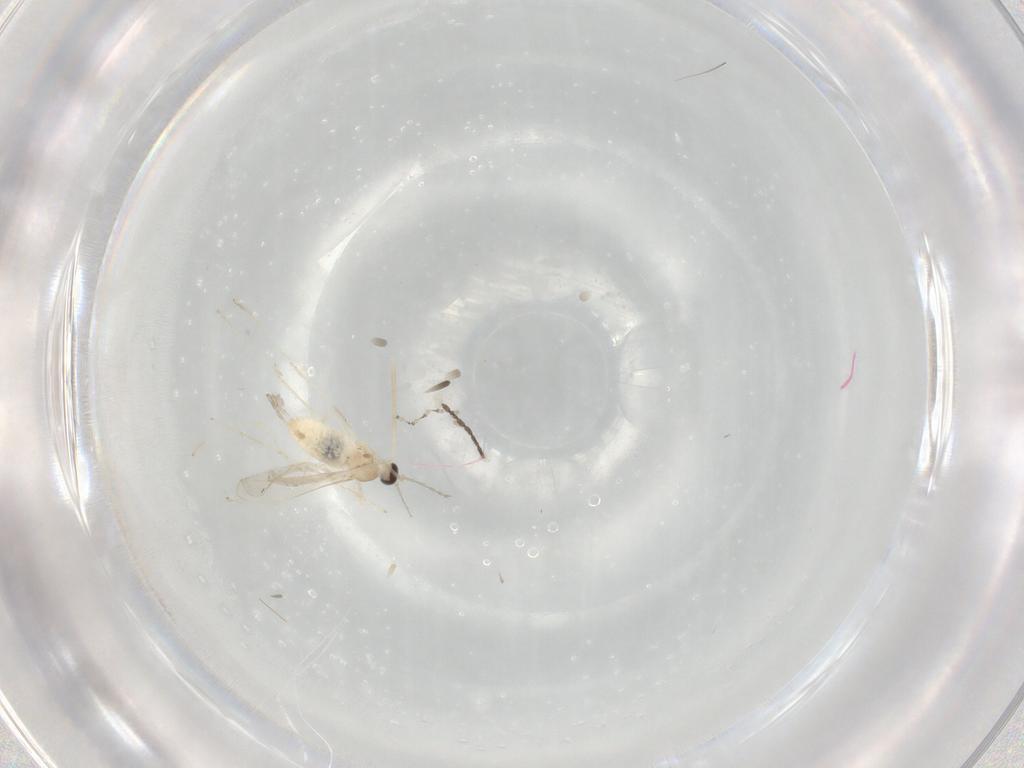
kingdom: Animalia
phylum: Arthropoda
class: Insecta
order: Diptera
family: Cecidomyiidae
